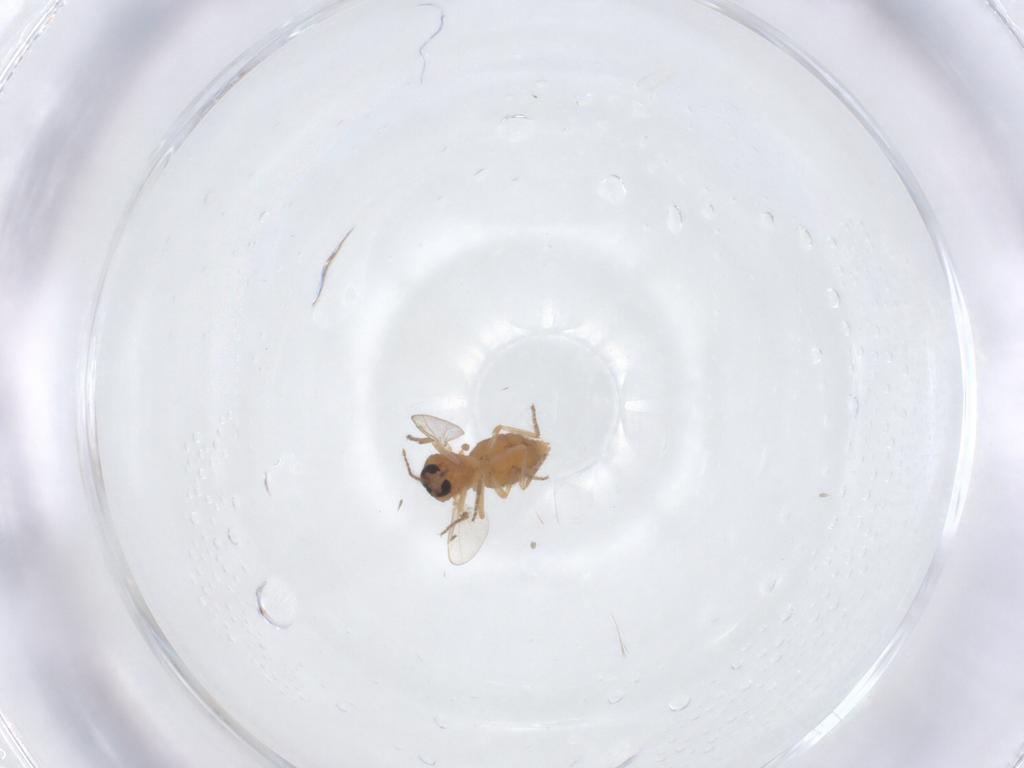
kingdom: Animalia
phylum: Arthropoda
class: Insecta
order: Diptera
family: Ceratopogonidae
